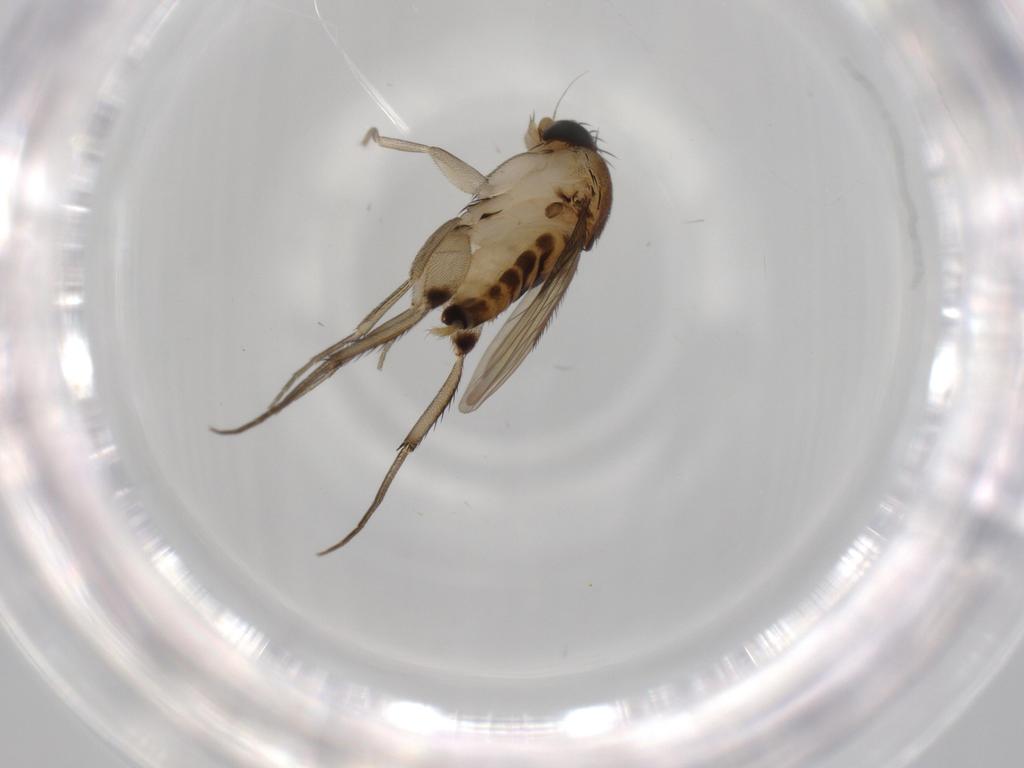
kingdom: Animalia
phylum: Arthropoda
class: Insecta
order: Diptera
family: Phoridae
